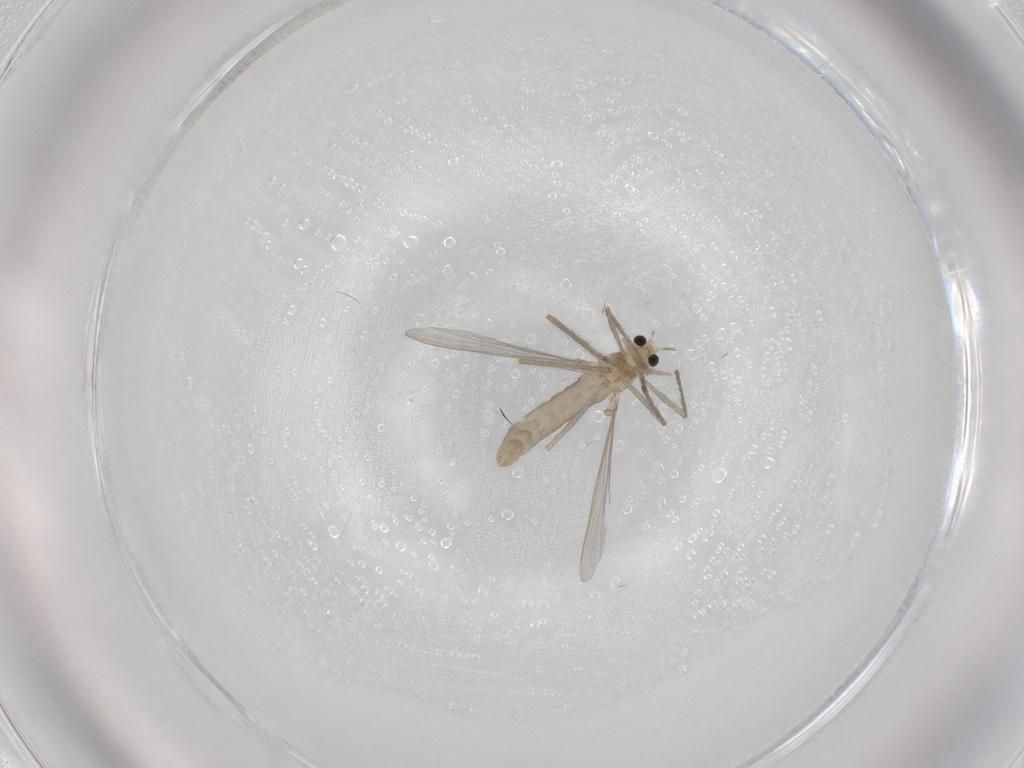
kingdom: Animalia
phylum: Arthropoda
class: Insecta
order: Diptera
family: Chironomidae
